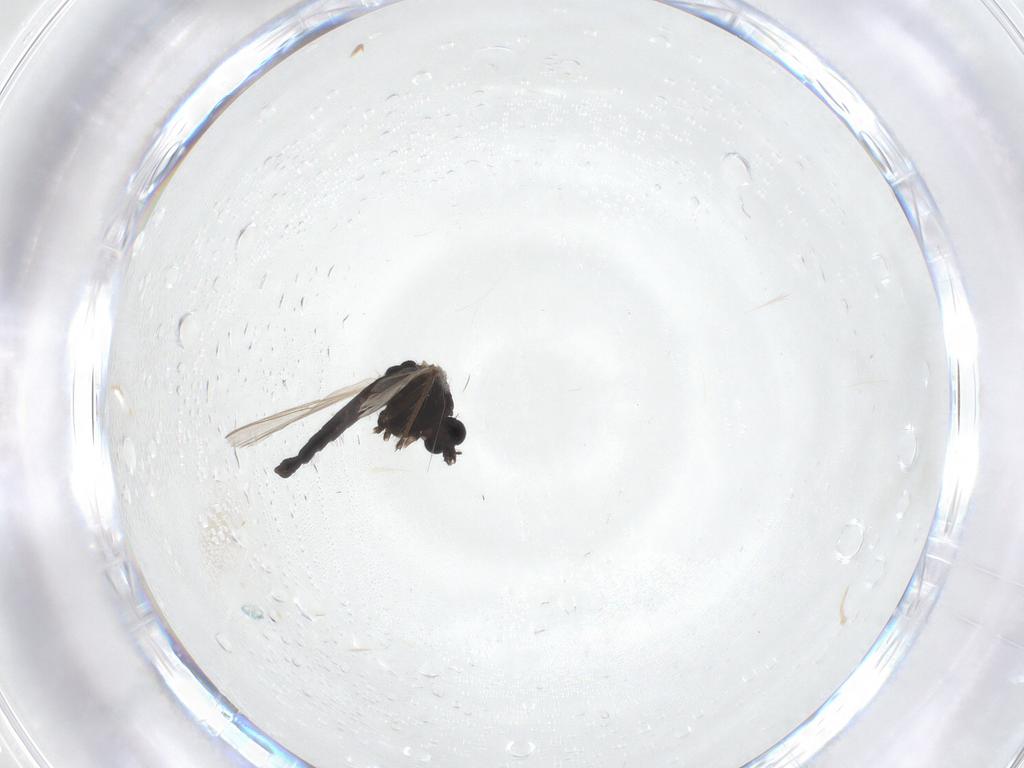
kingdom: Animalia
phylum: Arthropoda
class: Insecta
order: Diptera
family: Chironomidae
